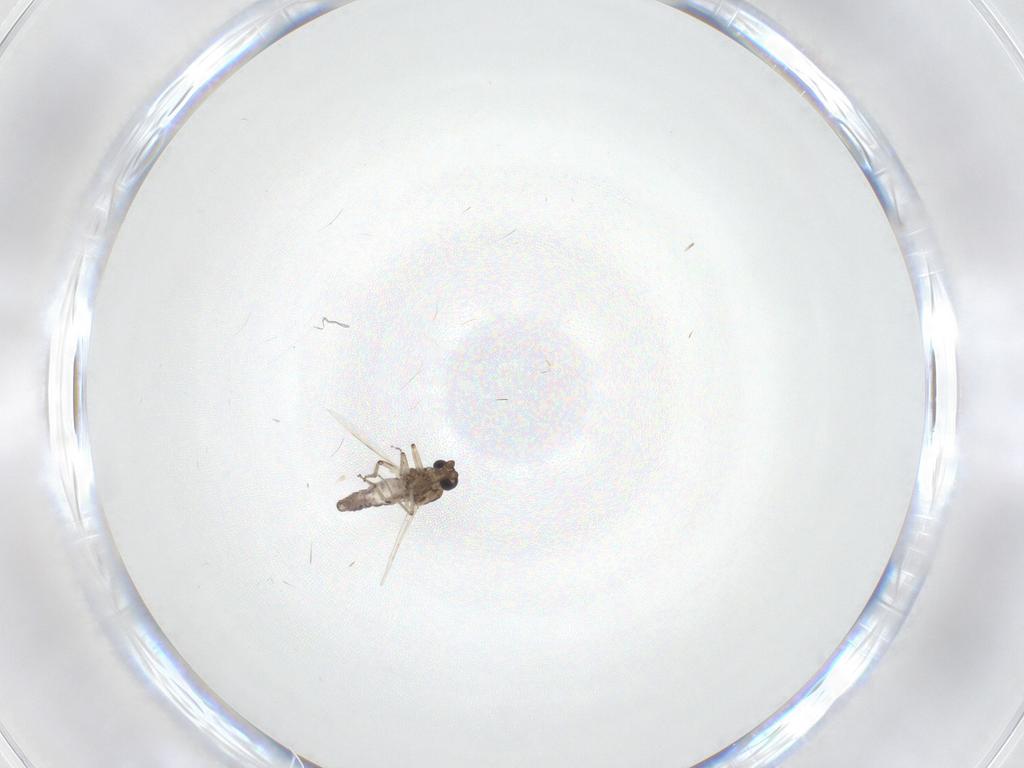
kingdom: Animalia
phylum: Arthropoda
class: Insecta
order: Diptera
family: Ceratopogonidae
